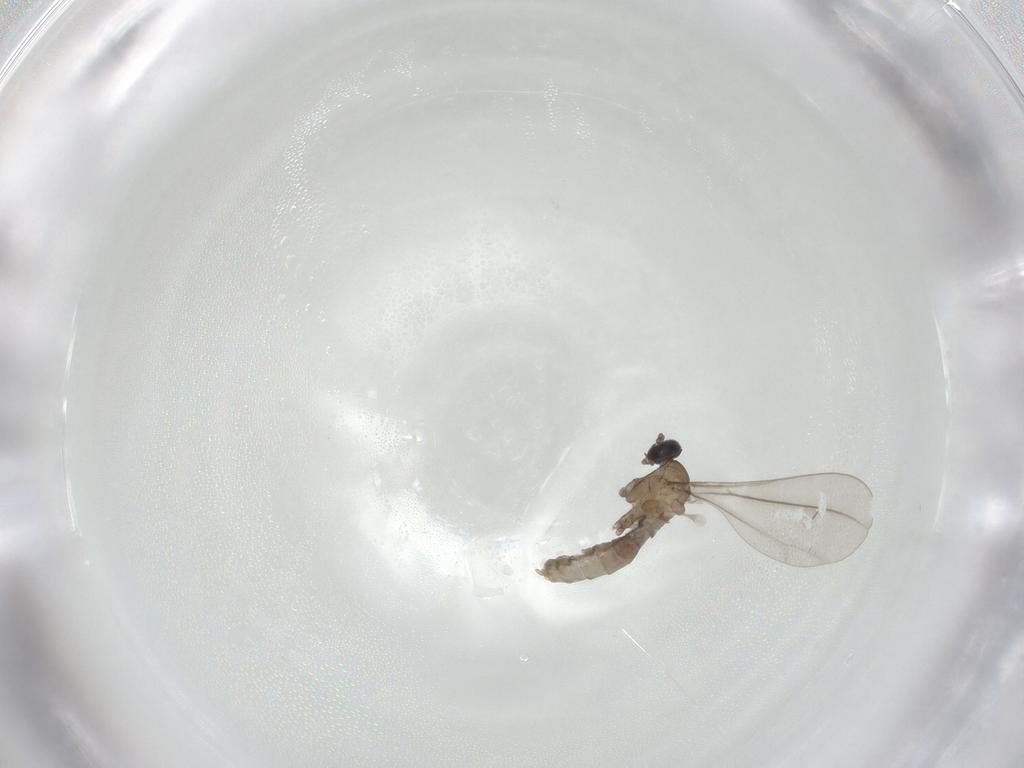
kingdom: Animalia
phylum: Arthropoda
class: Insecta
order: Diptera
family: Cecidomyiidae
